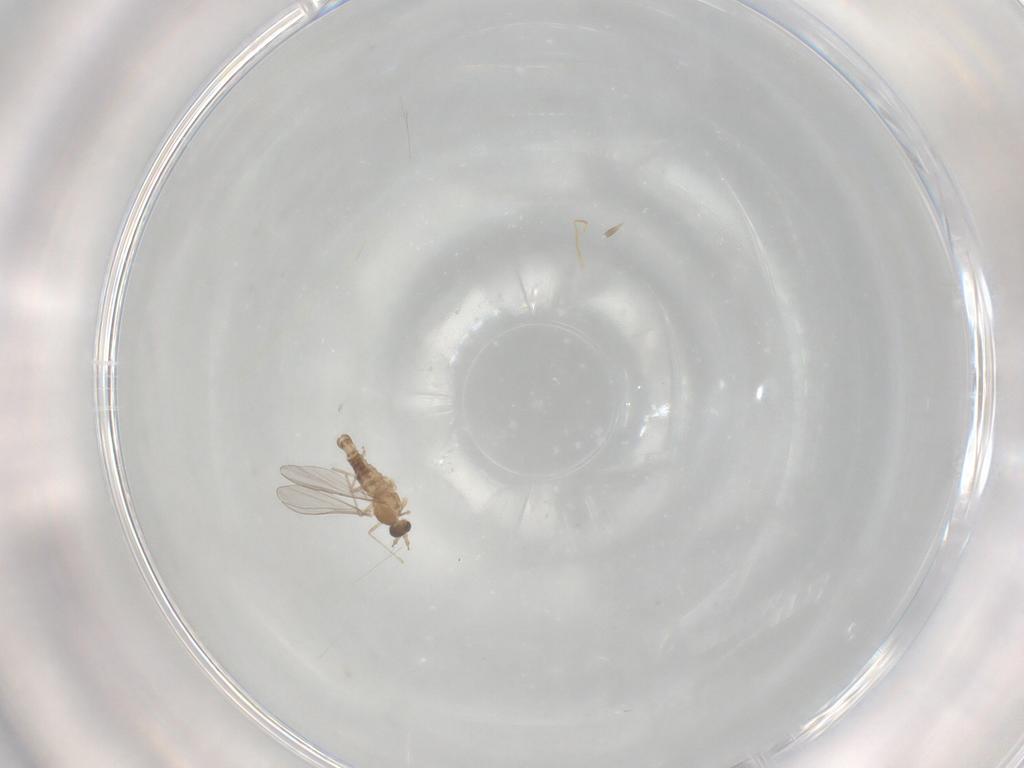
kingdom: Animalia
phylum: Arthropoda
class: Insecta
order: Diptera
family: Cecidomyiidae
